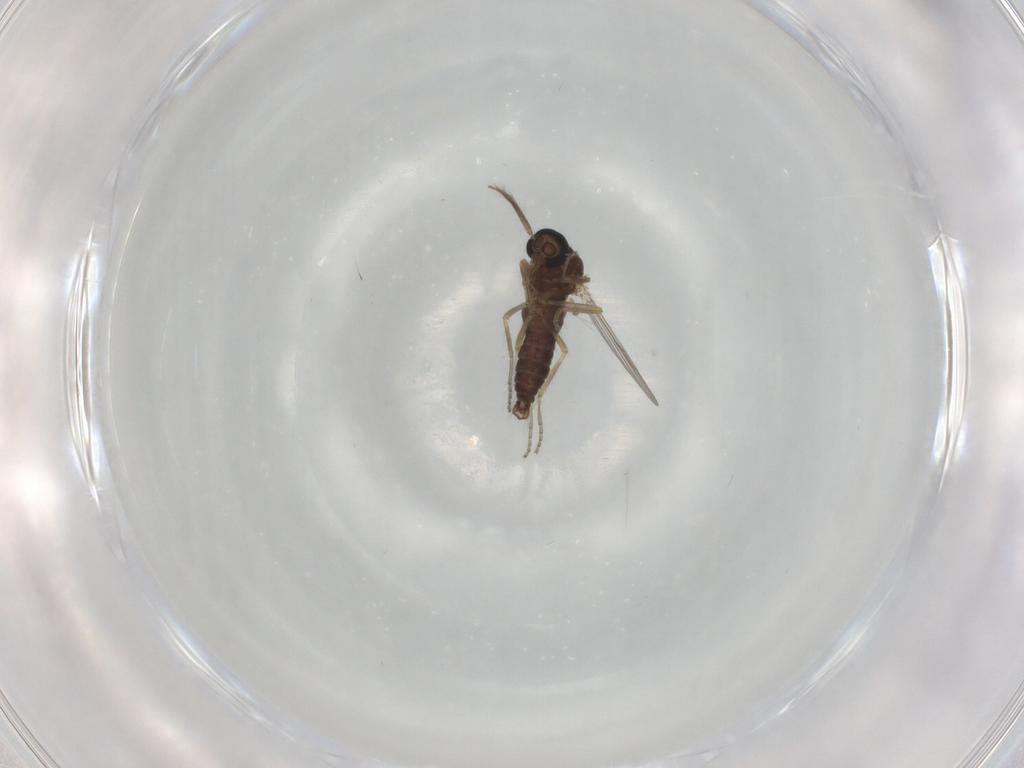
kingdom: Animalia
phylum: Arthropoda
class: Insecta
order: Diptera
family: Ceratopogonidae
